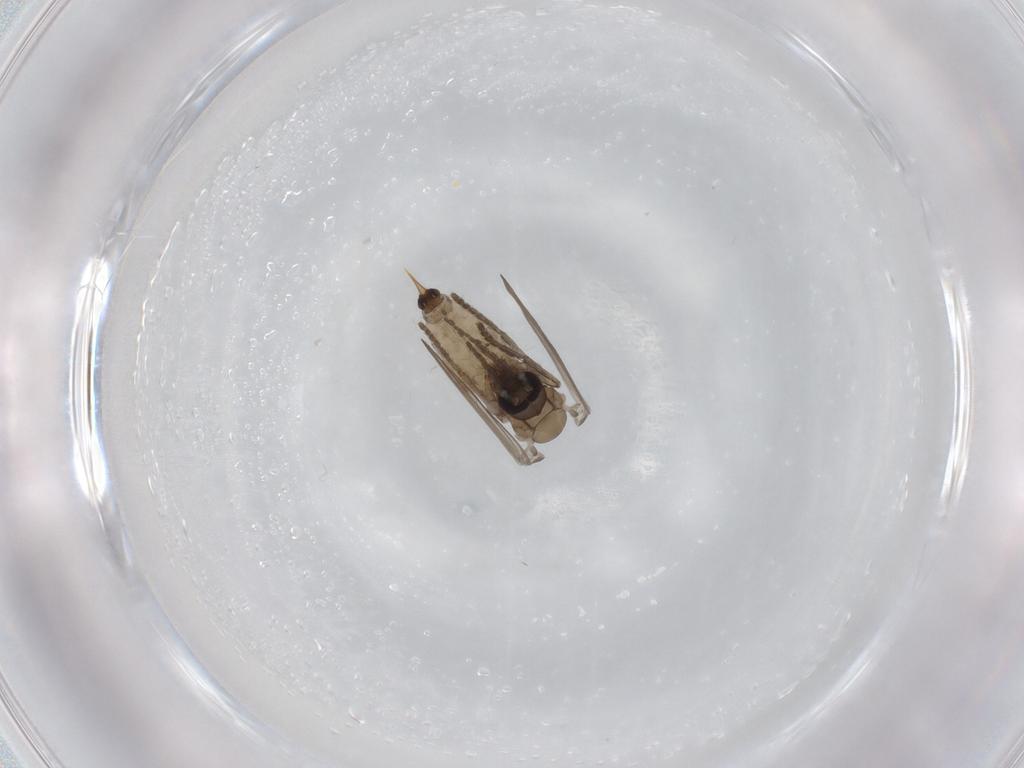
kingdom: Animalia
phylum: Arthropoda
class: Insecta
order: Diptera
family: Psychodidae
